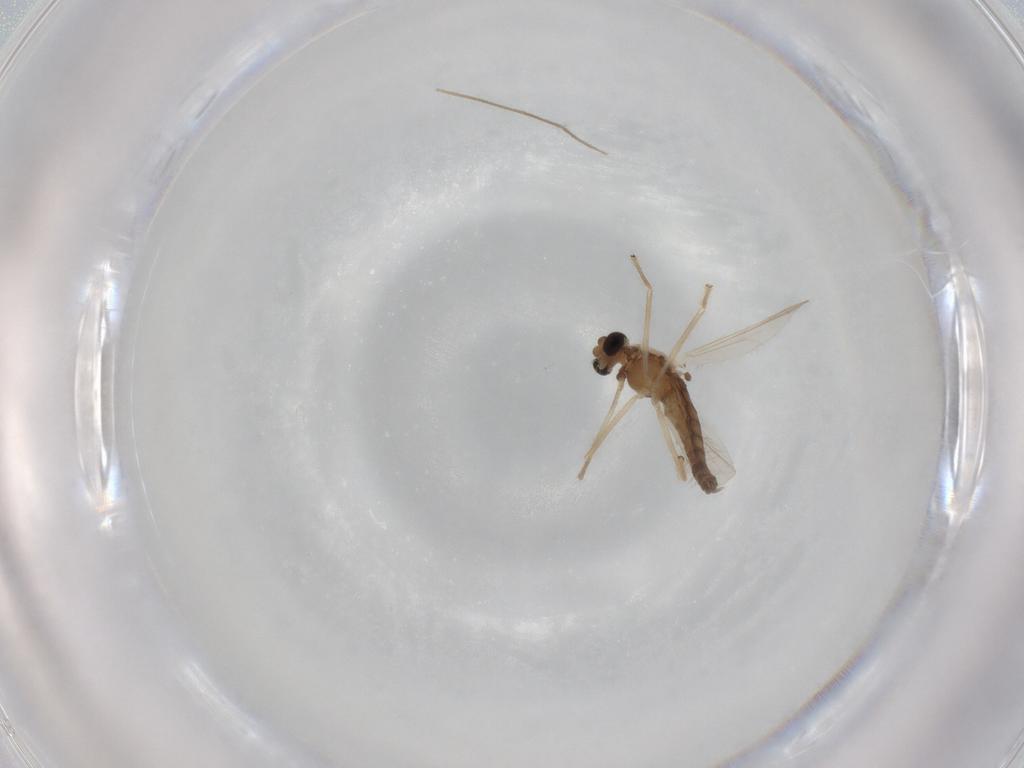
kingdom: Animalia
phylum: Arthropoda
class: Insecta
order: Diptera
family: Chironomidae
